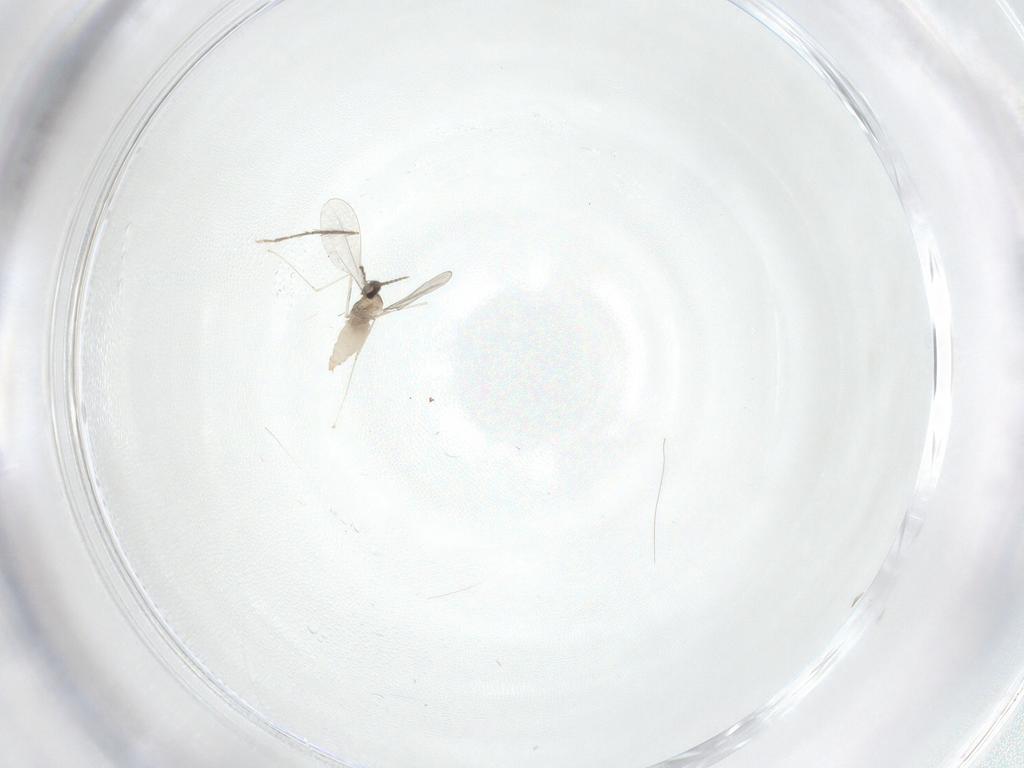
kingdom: Animalia
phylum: Arthropoda
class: Insecta
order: Diptera
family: Chironomidae
